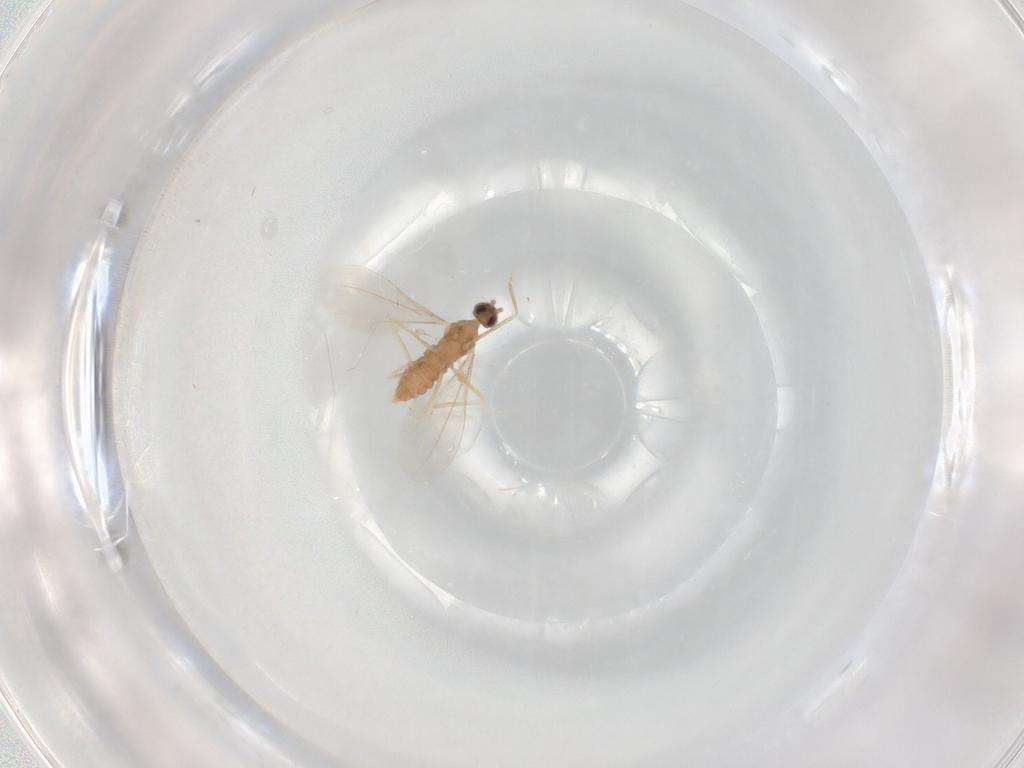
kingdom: Animalia
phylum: Arthropoda
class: Insecta
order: Diptera
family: Cecidomyiidae
